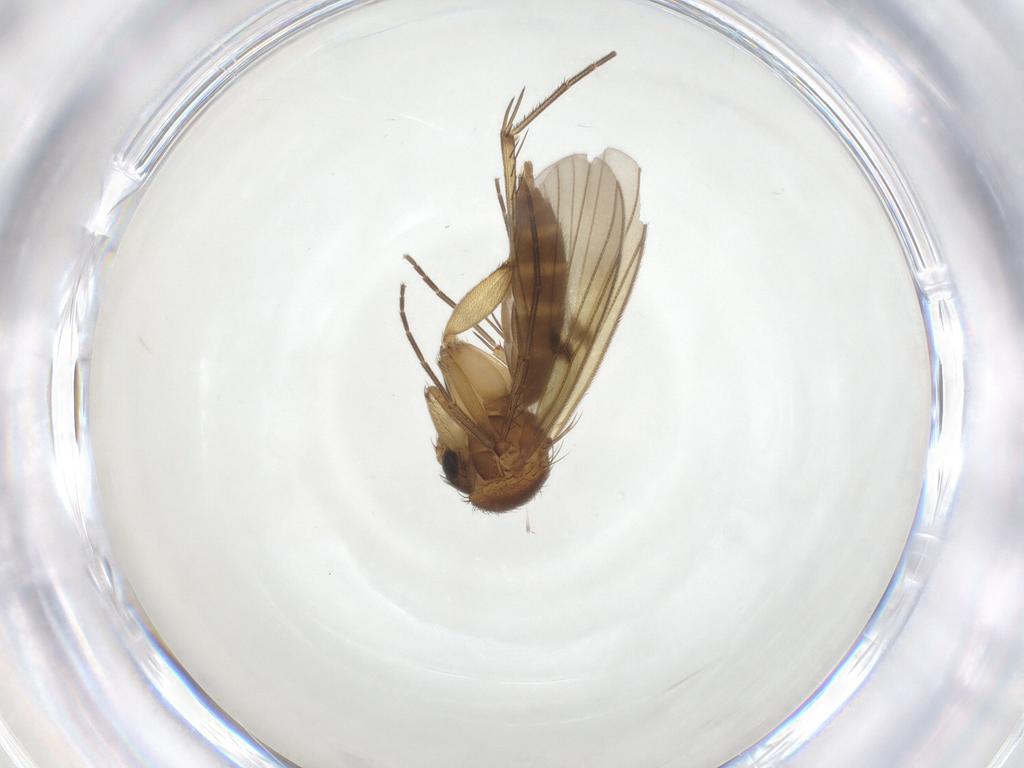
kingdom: Animalia
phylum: Arthropoda
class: Insecta
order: Diptera
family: Mycetophilidae
